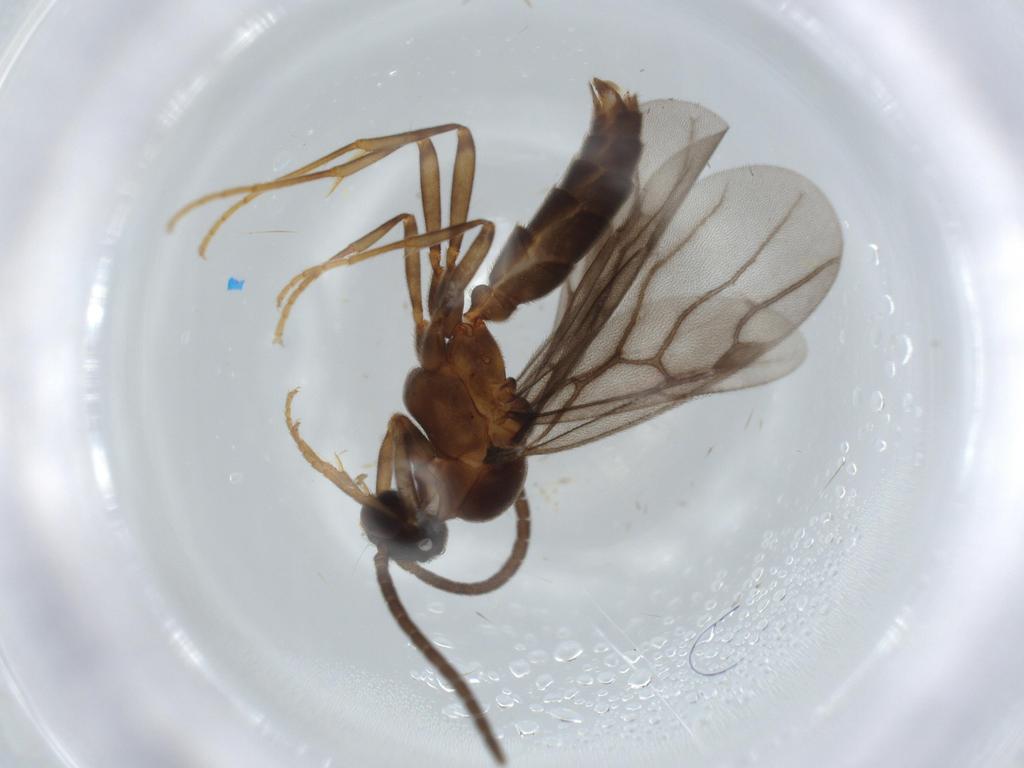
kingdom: Animalia
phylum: Arthropoda
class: Insecta
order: Hymenoptera
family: Formicidae
